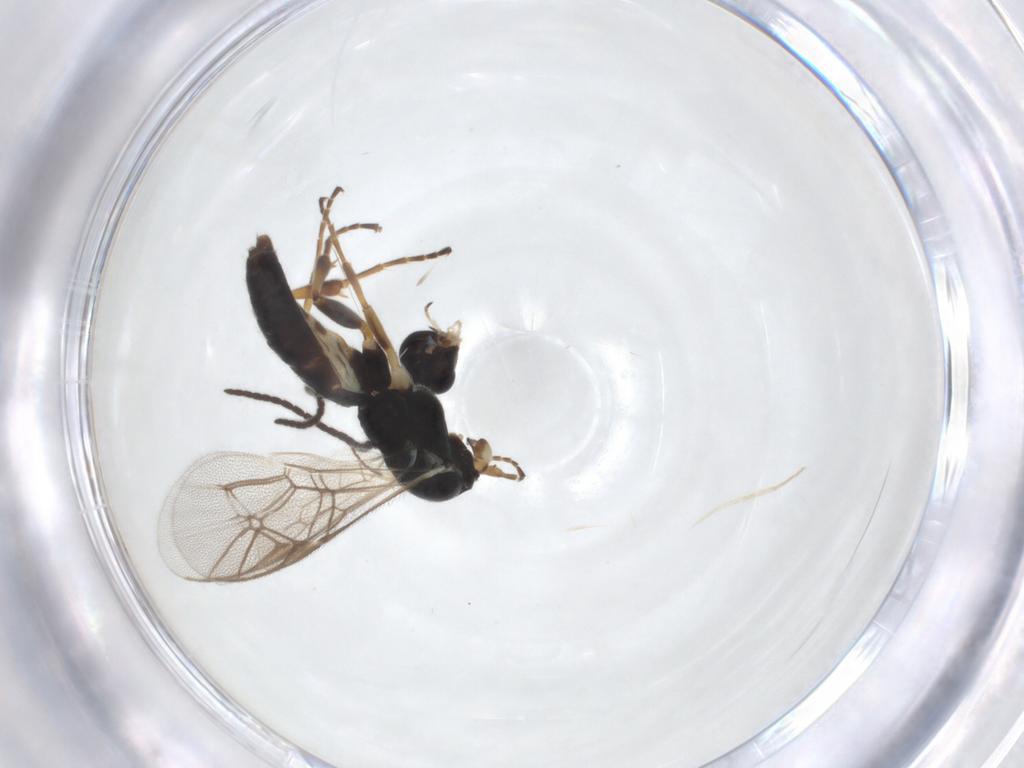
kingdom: Animalia
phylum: Arthropoda
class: Insecta
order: Hymenoptera
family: Ichneumonidae
